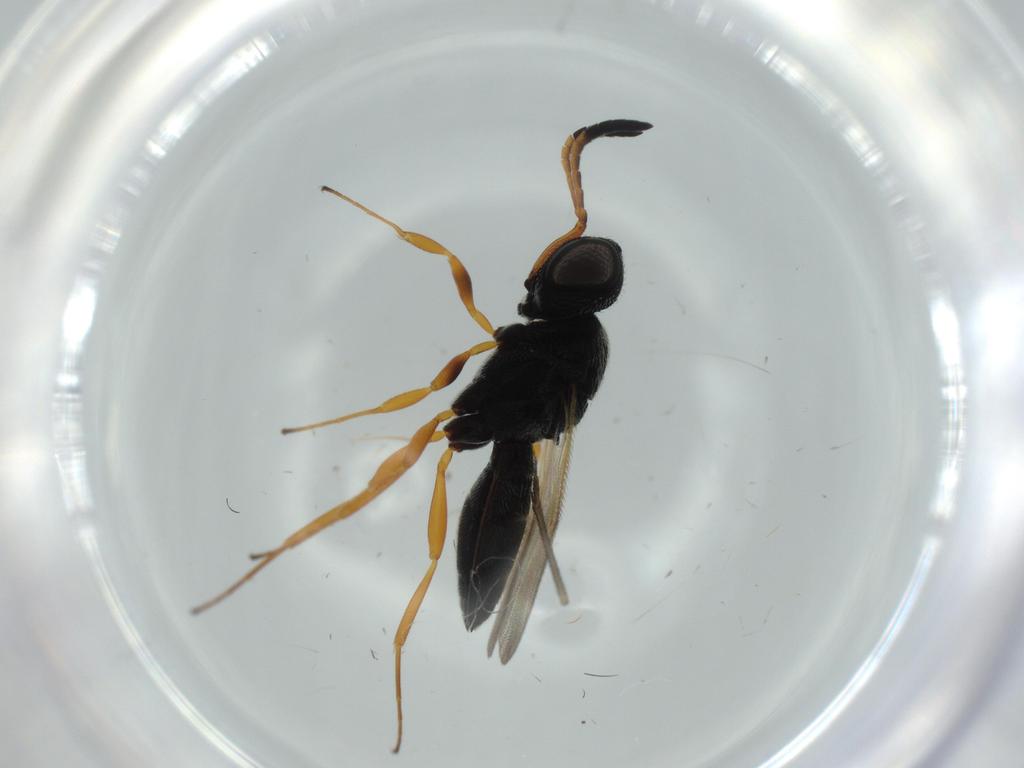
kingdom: Animalia
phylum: Arthropoda
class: Insecta
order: Hymenoptera
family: Scelionidae
